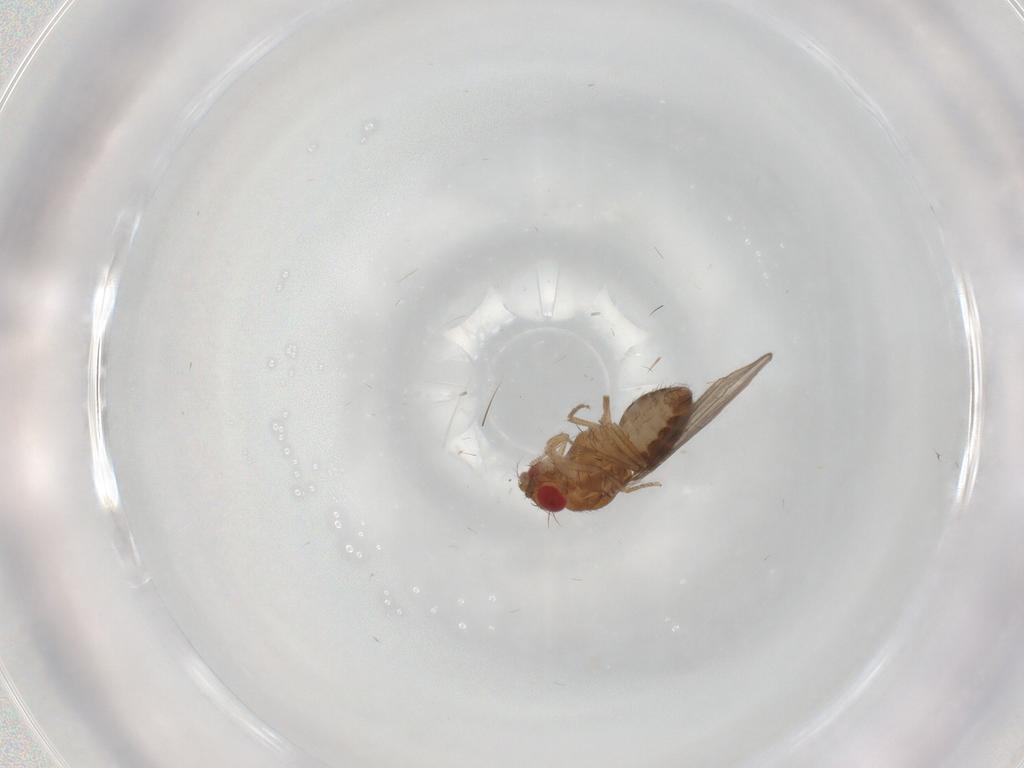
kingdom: Animalia
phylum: Arthropoda
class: Insecta
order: Diptera
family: Drosophilidae
